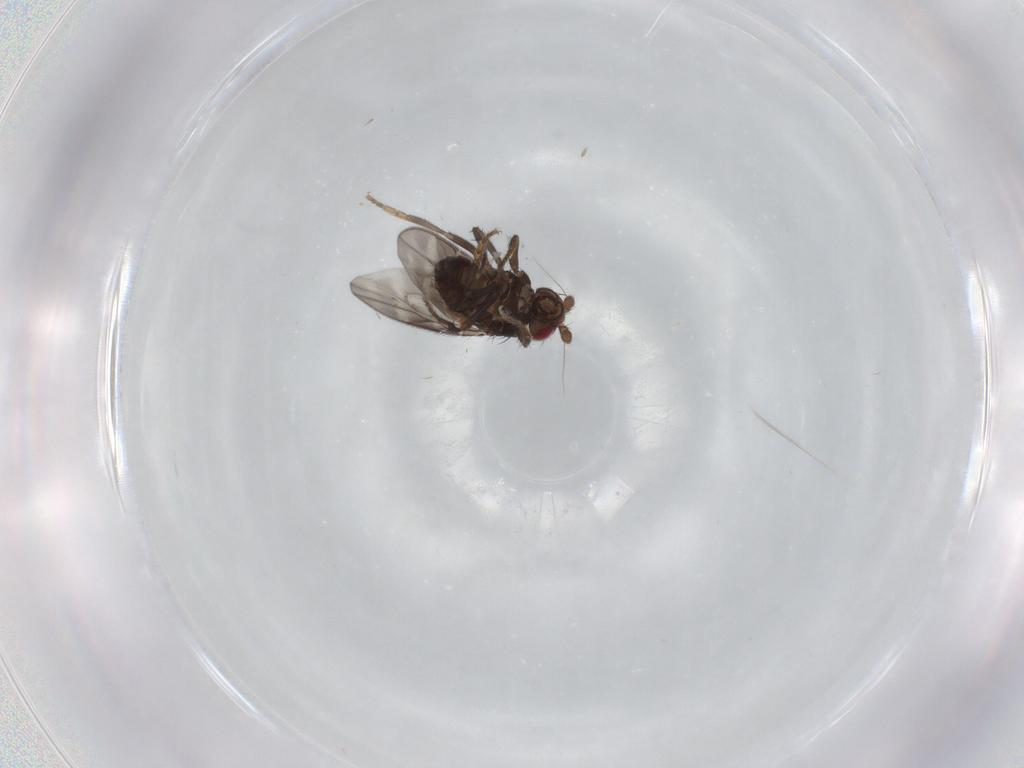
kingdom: Animalia
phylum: Arthropoda
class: Insecta
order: Diptera
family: Sphaeroceridae
